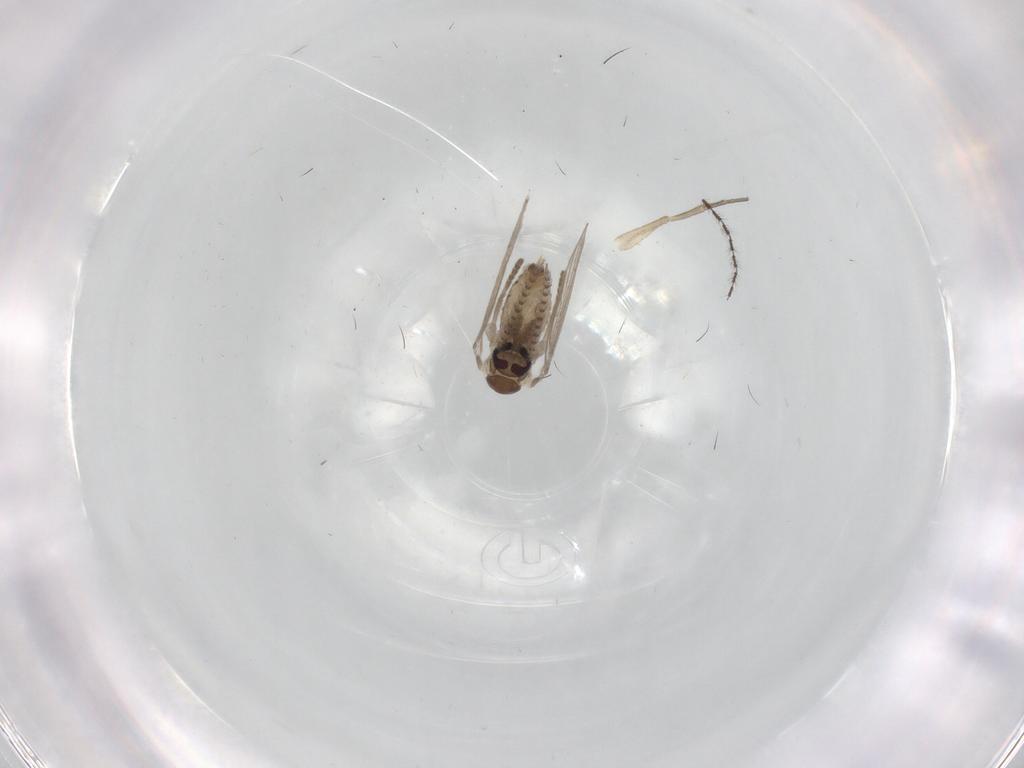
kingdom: Animalia
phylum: Arthropoda
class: Insecta
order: Diptera
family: Psychodidae
